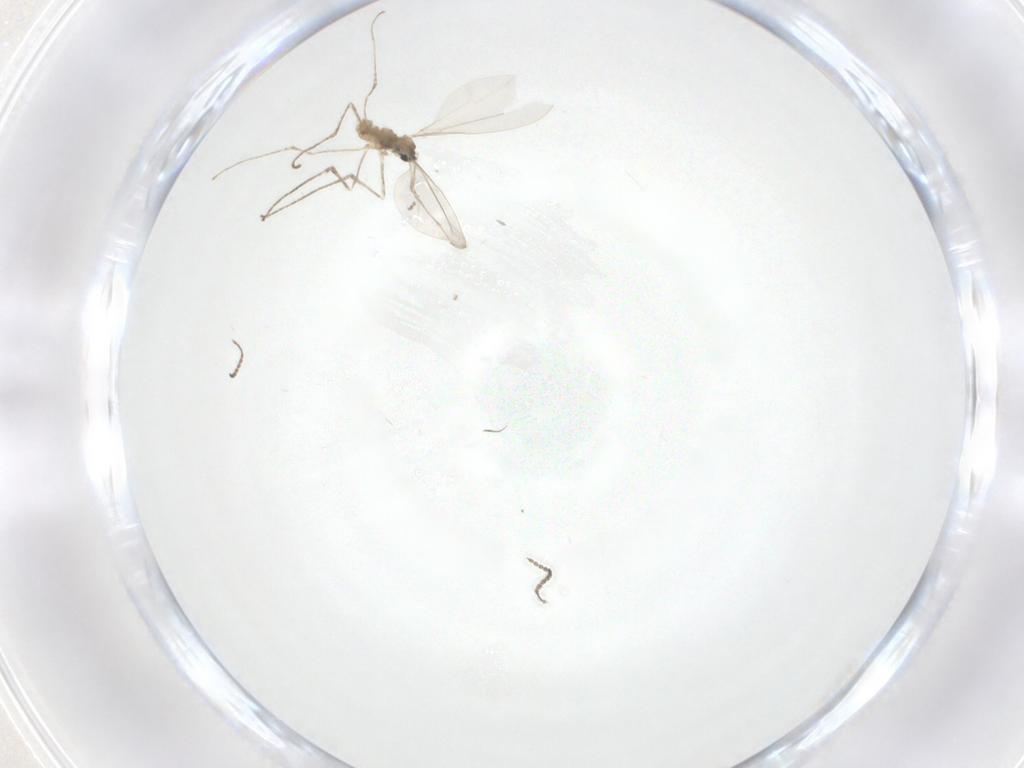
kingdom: Animalia
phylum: Arthropoda
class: Insecta
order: Diptera
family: Cecidomyiidae
